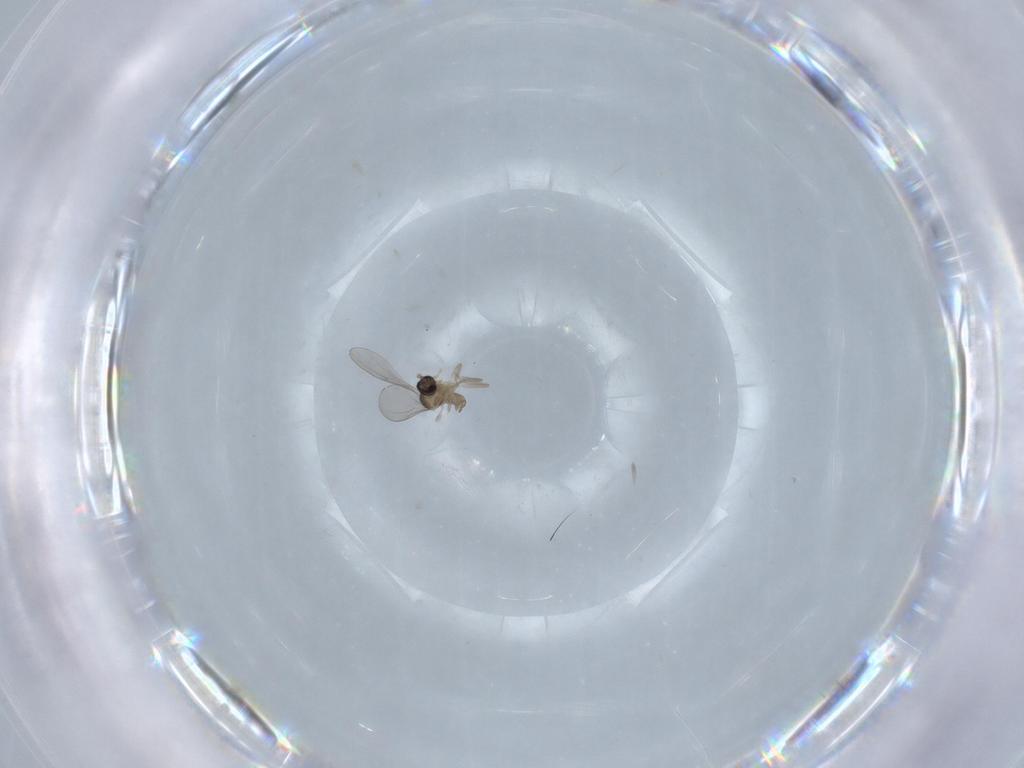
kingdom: Animalia
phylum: Arthropoda
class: Insecta
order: Diptera
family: Cecidomyiidae
